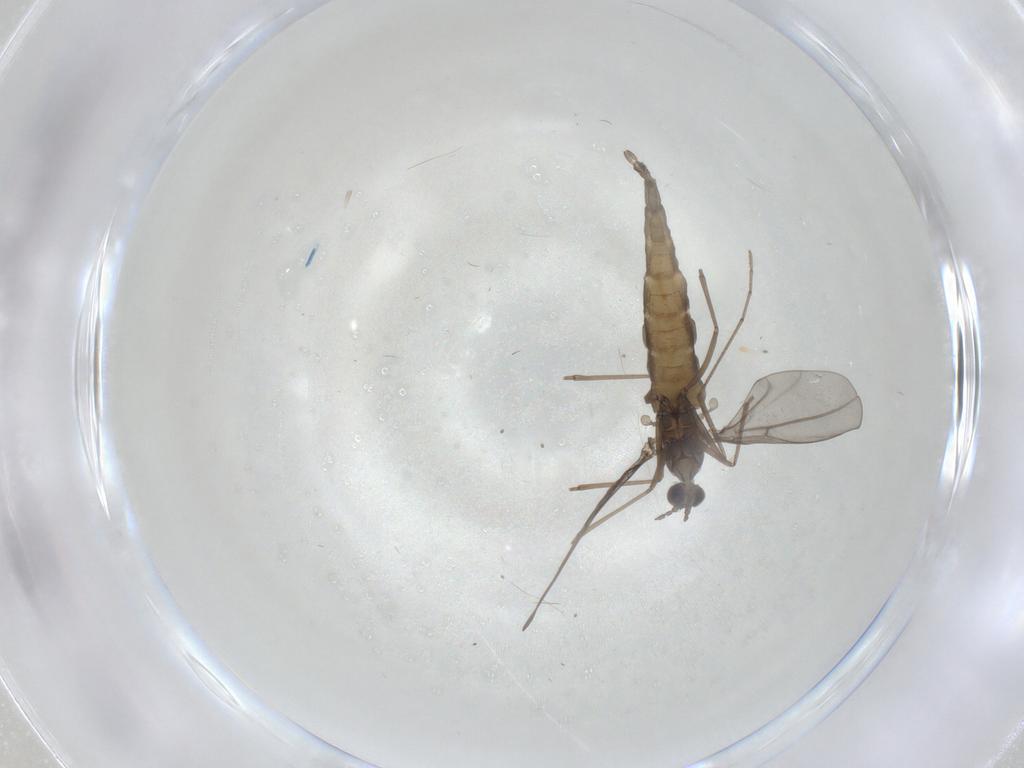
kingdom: Animalia
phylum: Arthropoda
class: Insecta
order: Diptera
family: Cecidomyiidae
